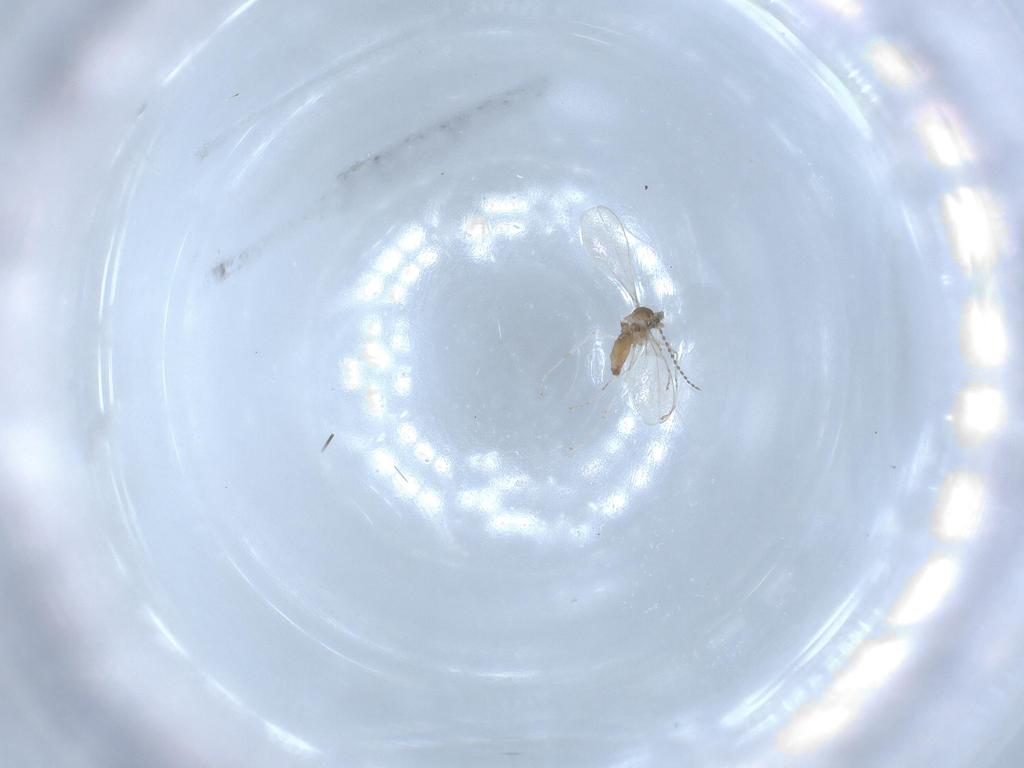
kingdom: Animalia
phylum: Arthropoda
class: Insecta
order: Diptera
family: Cecidomyiidae
